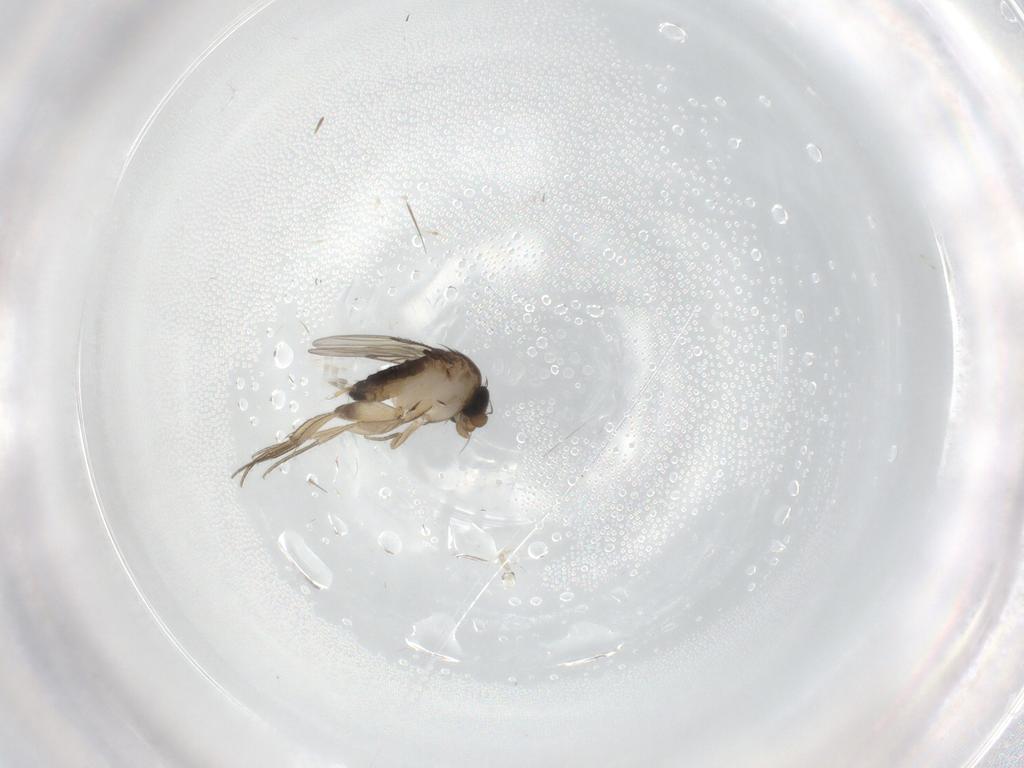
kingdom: Animalia
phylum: Arthropoda
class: Insecta
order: Diptera
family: Phoridae
